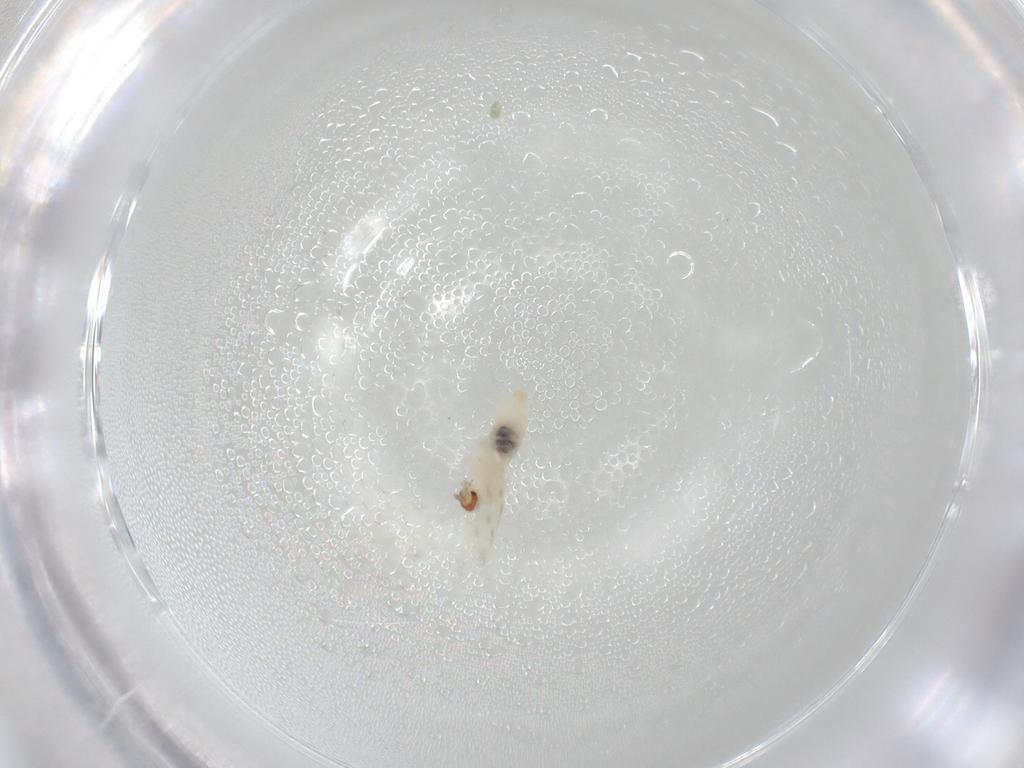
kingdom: Animalia
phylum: Arthropoda
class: Insecta
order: Diptera
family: Cecidomyiidae
